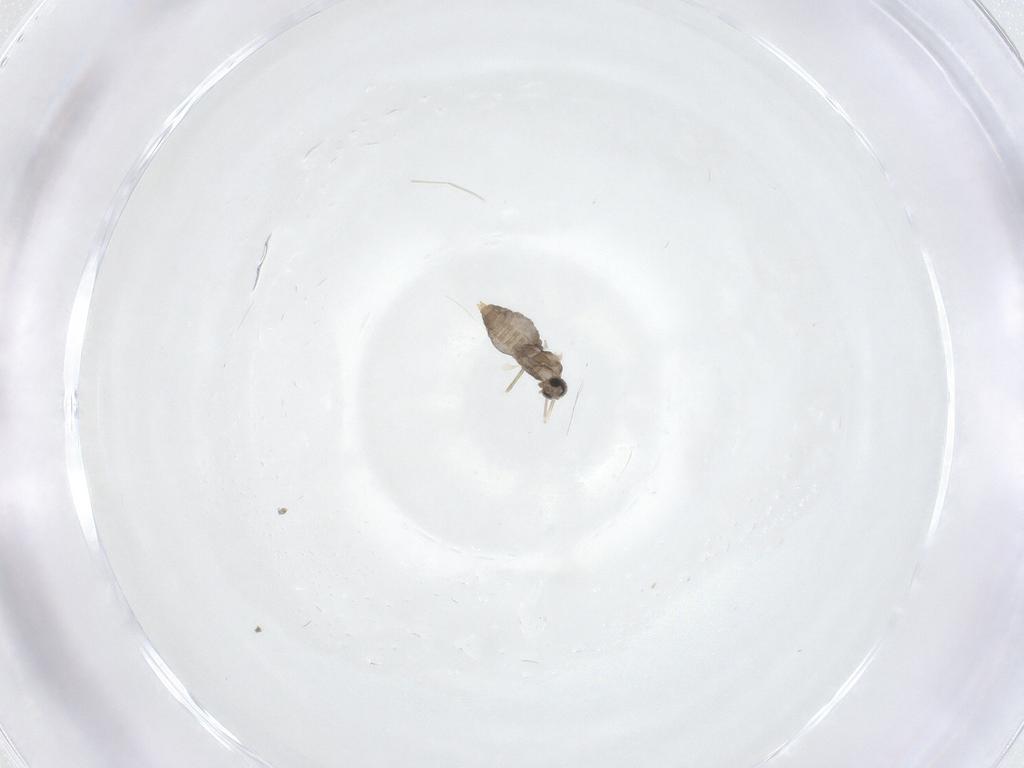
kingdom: Animalia
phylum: Arthropoda
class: Insecta
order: Diptera
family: Cecidomyiidae
